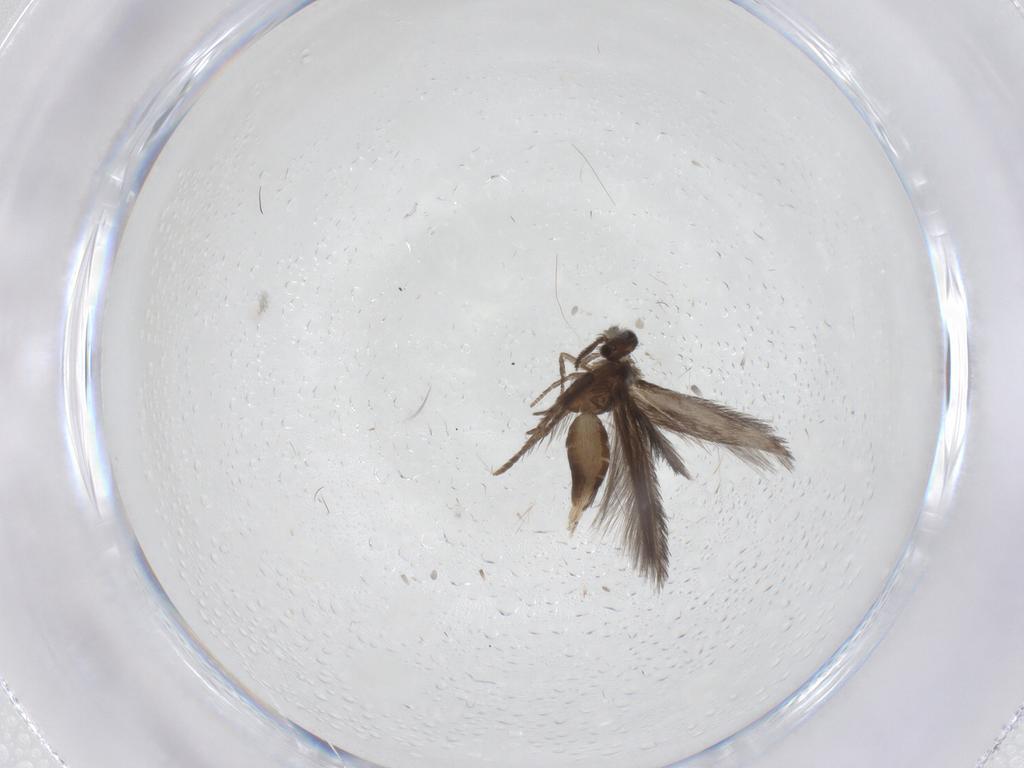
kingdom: Animalia
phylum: Arthropoda
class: Insecta
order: Trichoptera
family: Hydroptilidae
